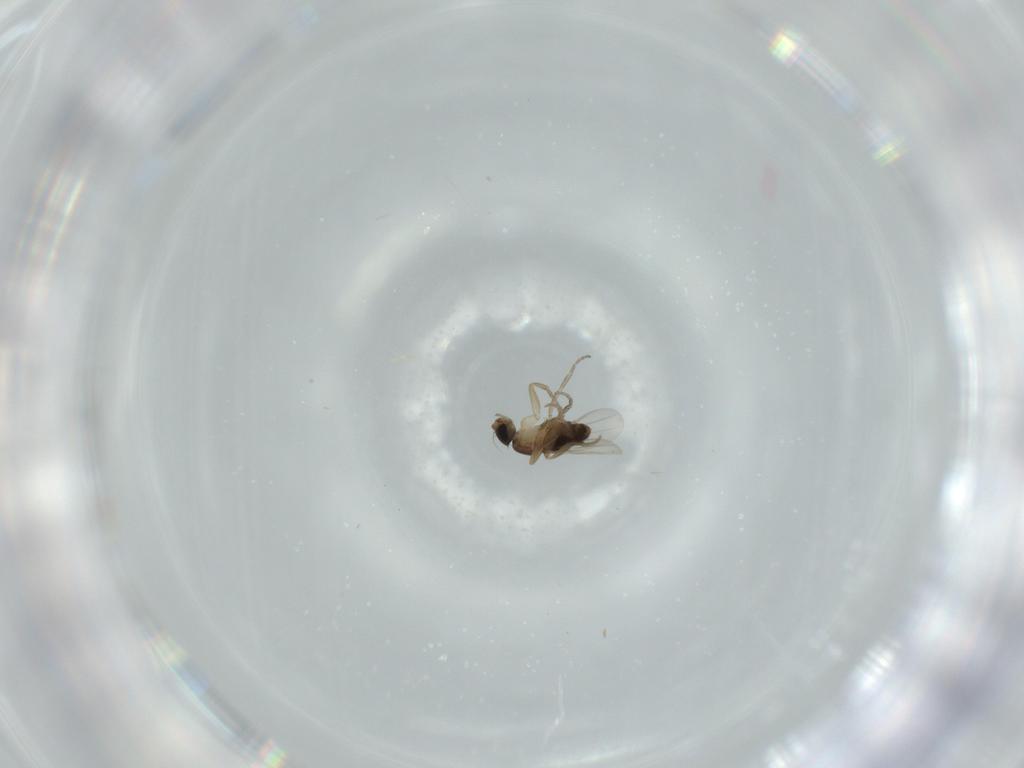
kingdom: Animalia
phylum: Arthropoda
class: Insecta
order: Diptera
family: Phoridae
